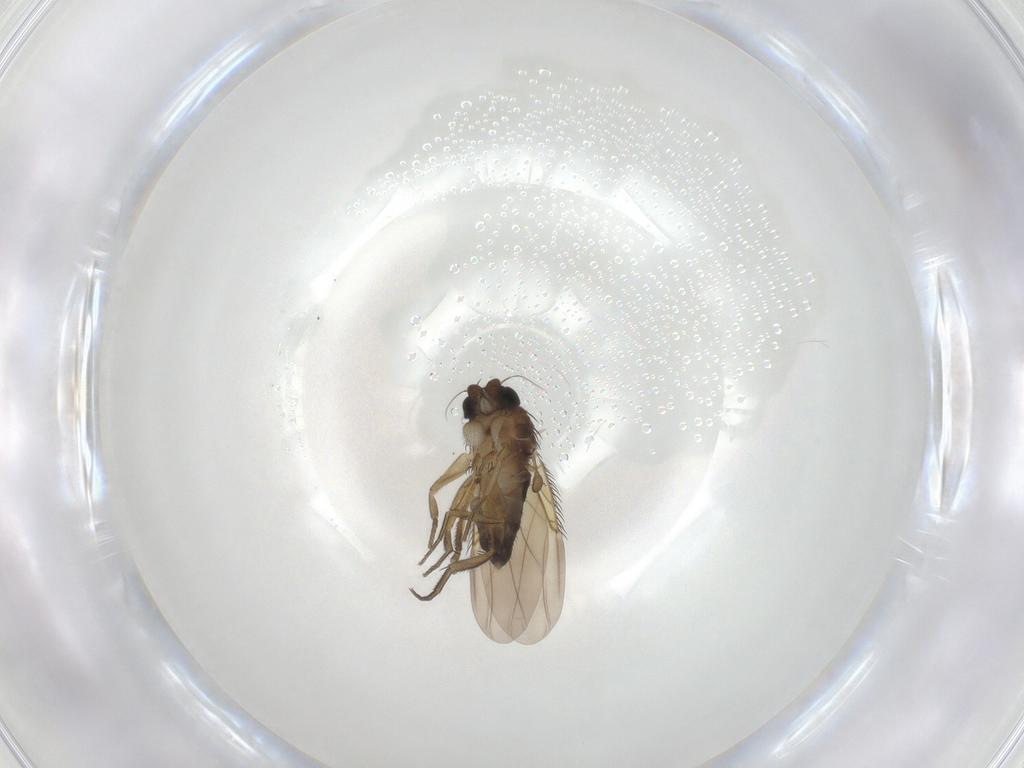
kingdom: Animalia
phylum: Arthropoda
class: Insecta
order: Diptera
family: Phoridae
